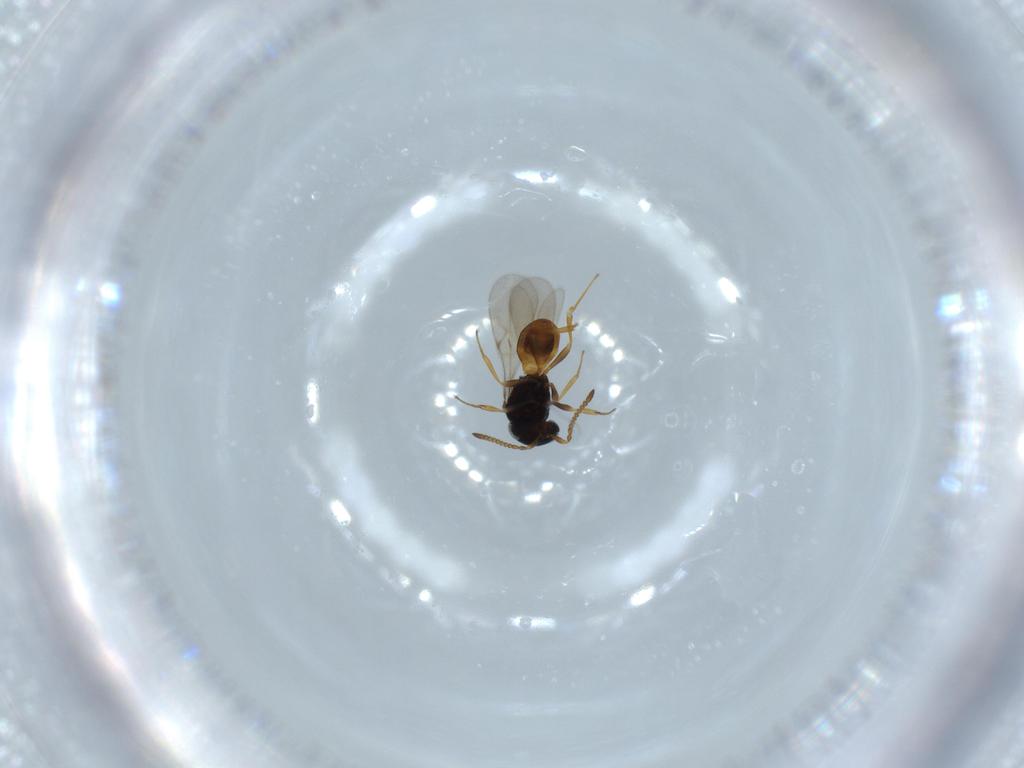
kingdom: Animalia
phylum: Arthropoda
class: Insecta
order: Hymenoptera
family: Scelionidae
